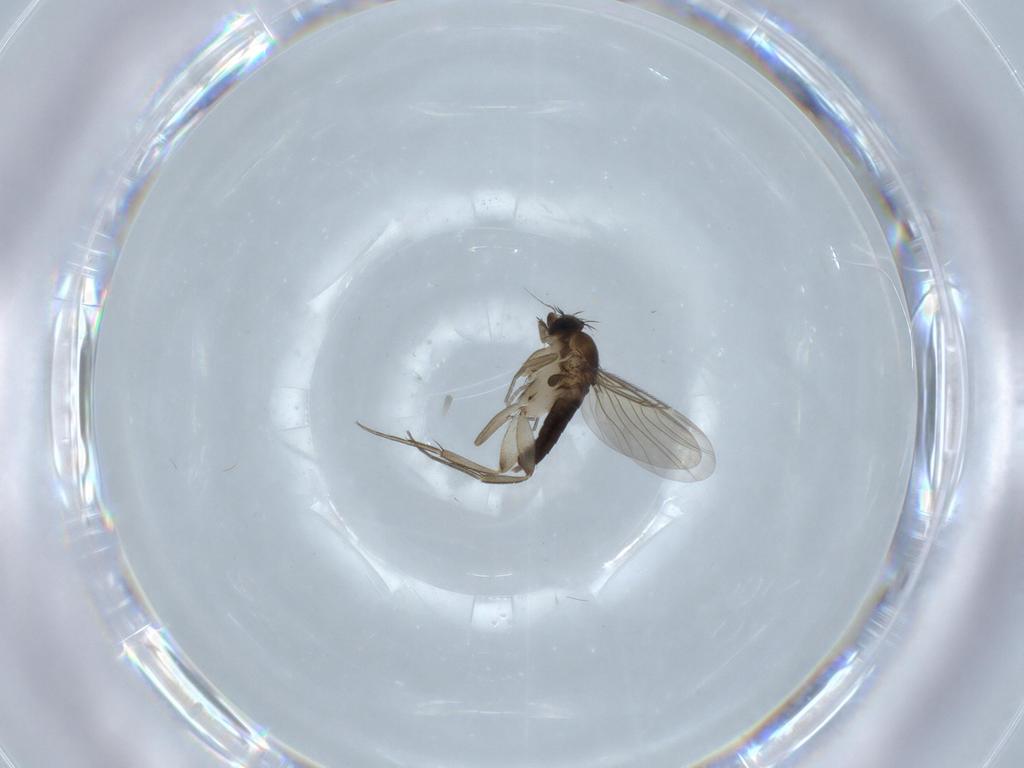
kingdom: Animalia
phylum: Arthropoda
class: Insecta
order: Diptera
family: Phoridae
